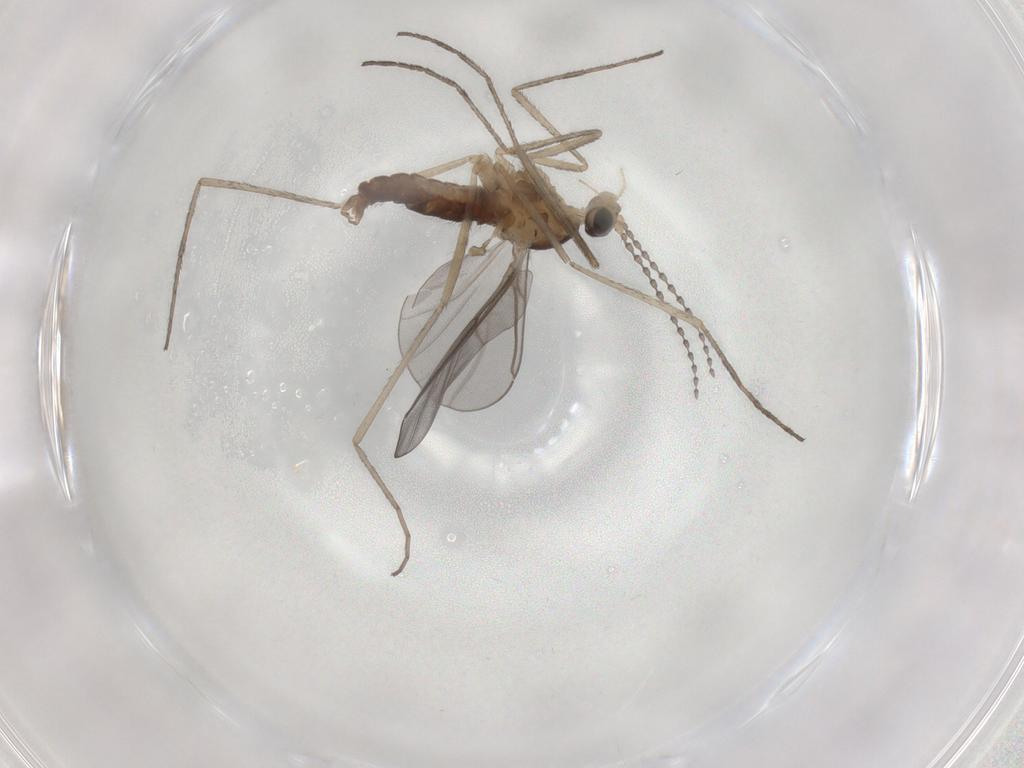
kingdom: Animalia
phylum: Arthropoda
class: Insecta
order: Diptera
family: Cecidomyiidae
